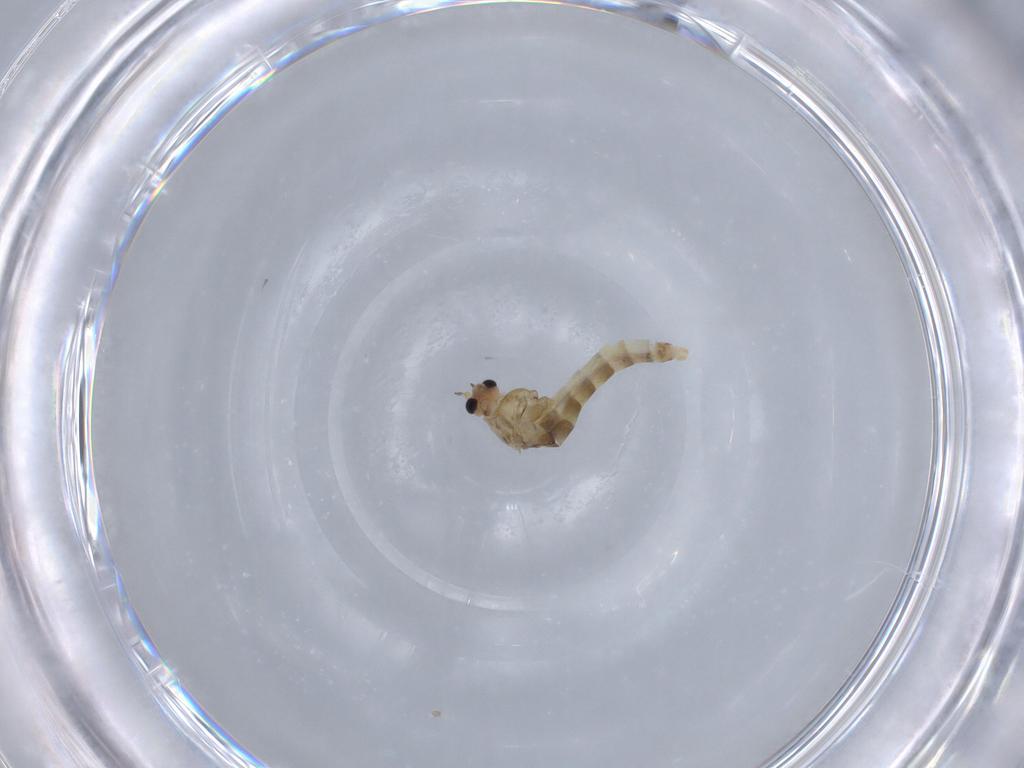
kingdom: Animalia
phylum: Arthropoda
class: Insecta
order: Diptera
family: Chironomidae
